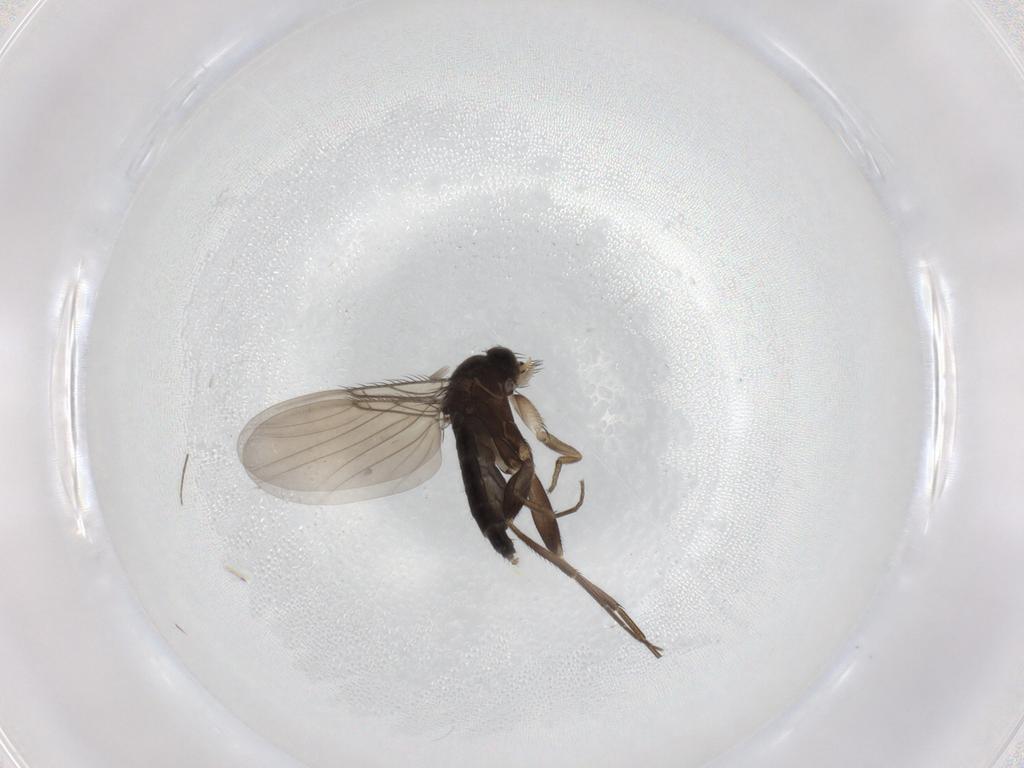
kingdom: Animalia
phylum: Arthropoda
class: Insecta
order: Diptera
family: Phoridae
